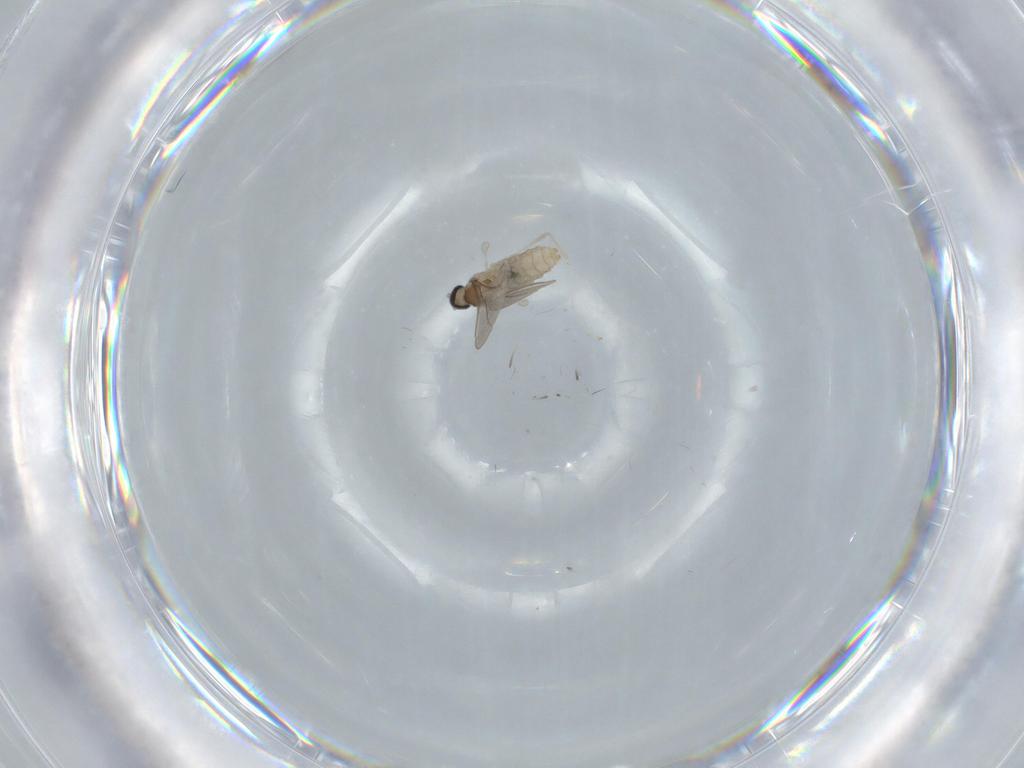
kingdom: Animalia
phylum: Arthropoda
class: Insecta
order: Diptera
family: Cecidomyiidae
